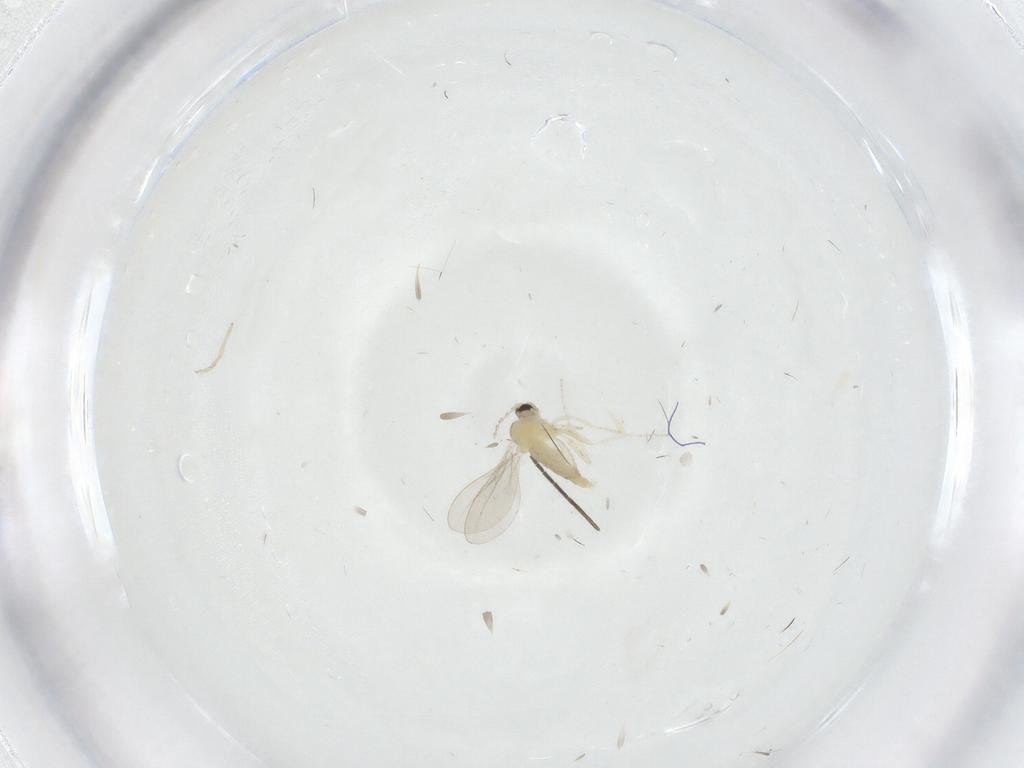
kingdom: Animalia
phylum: Arthropoda
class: Insecta
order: Diptera
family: Cecidomyiidae
